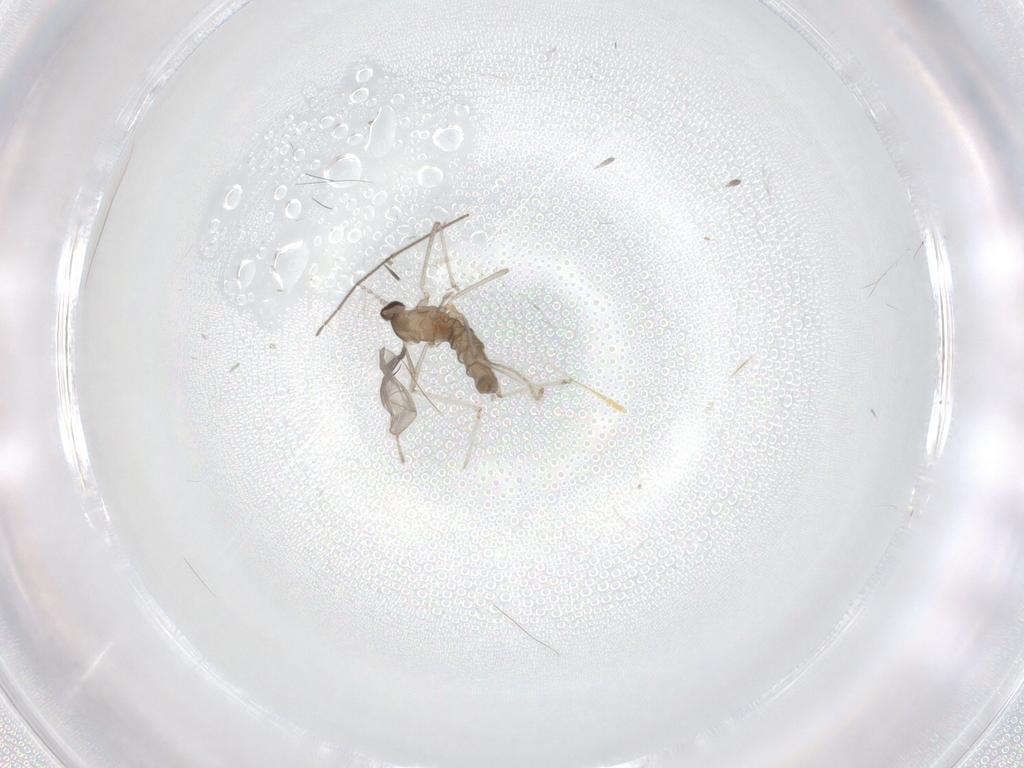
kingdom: Animalia
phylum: Arthropoda
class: Insecta
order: Diptera
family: Cecidomyiidae
